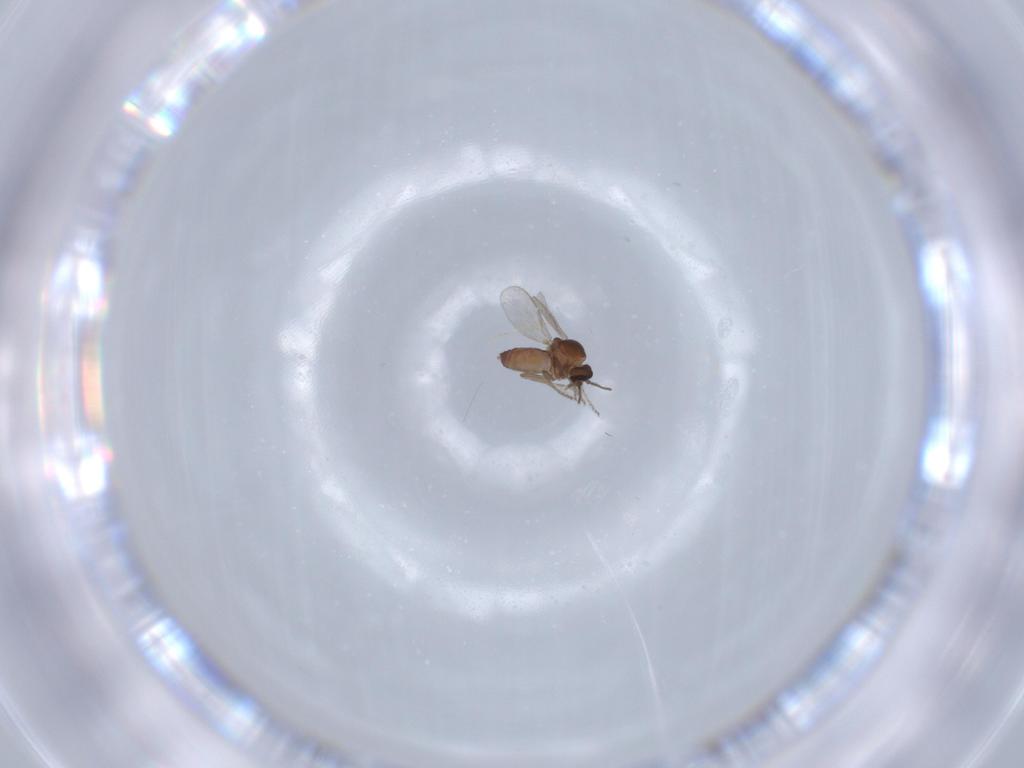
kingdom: Animalia
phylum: Arthropoda
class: Insecta
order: Diptera
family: Ceratopogonidae
